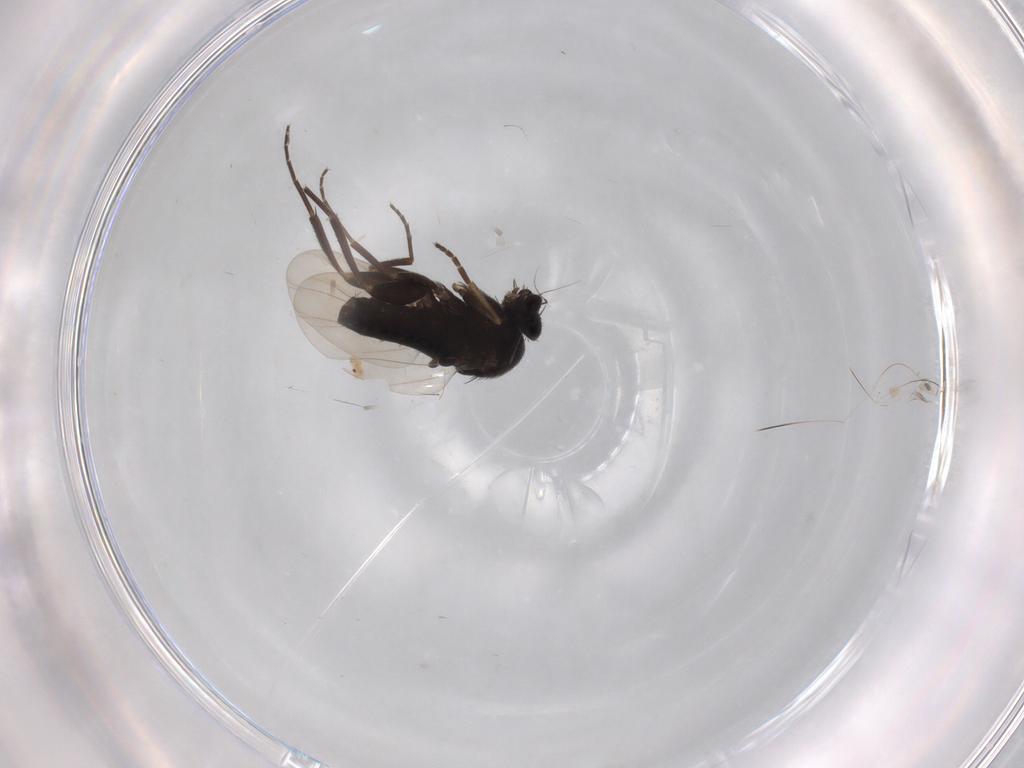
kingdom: Animalia
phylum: Arthropoda
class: Insecta
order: Diptera
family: Phoridae
